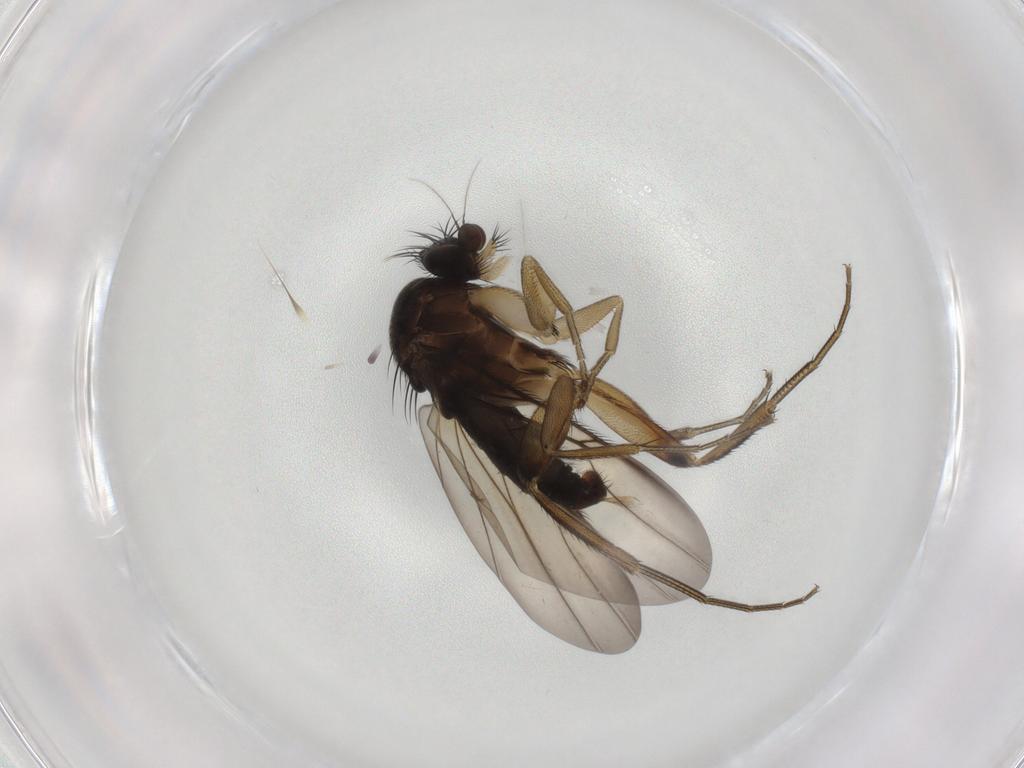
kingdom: Animalia
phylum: Arthropoda
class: Insecta
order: Diptera
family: Phoridae
